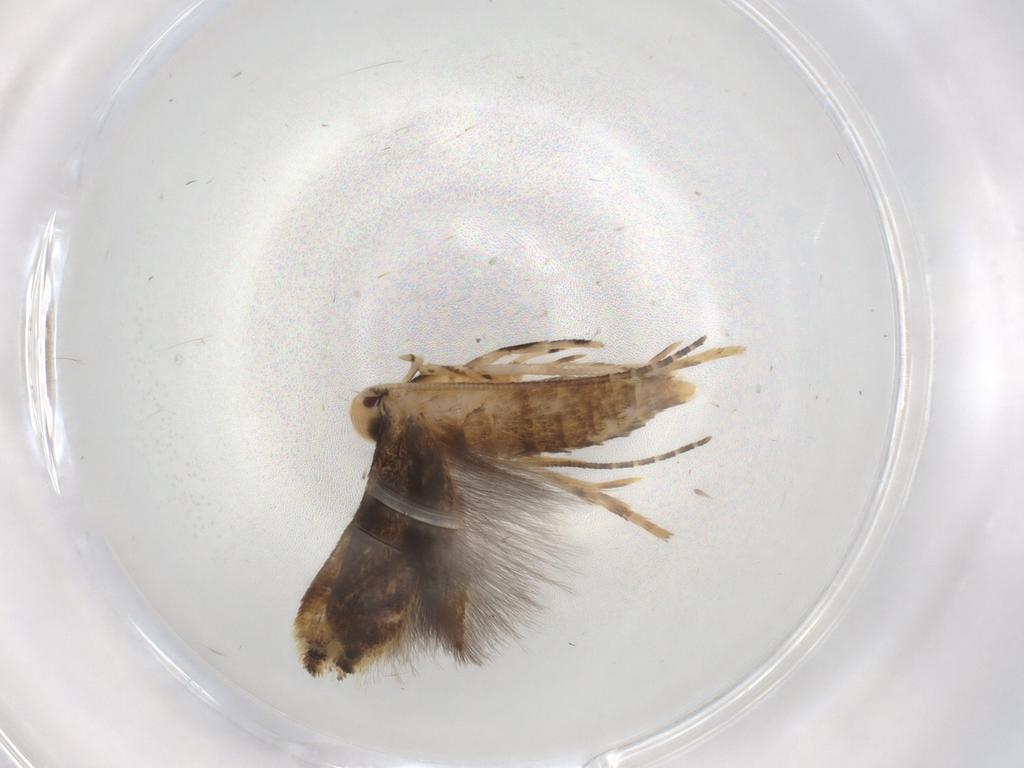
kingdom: Animalia
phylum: Arthropoda
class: Insecta
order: Lepidoptera
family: Momphidae
